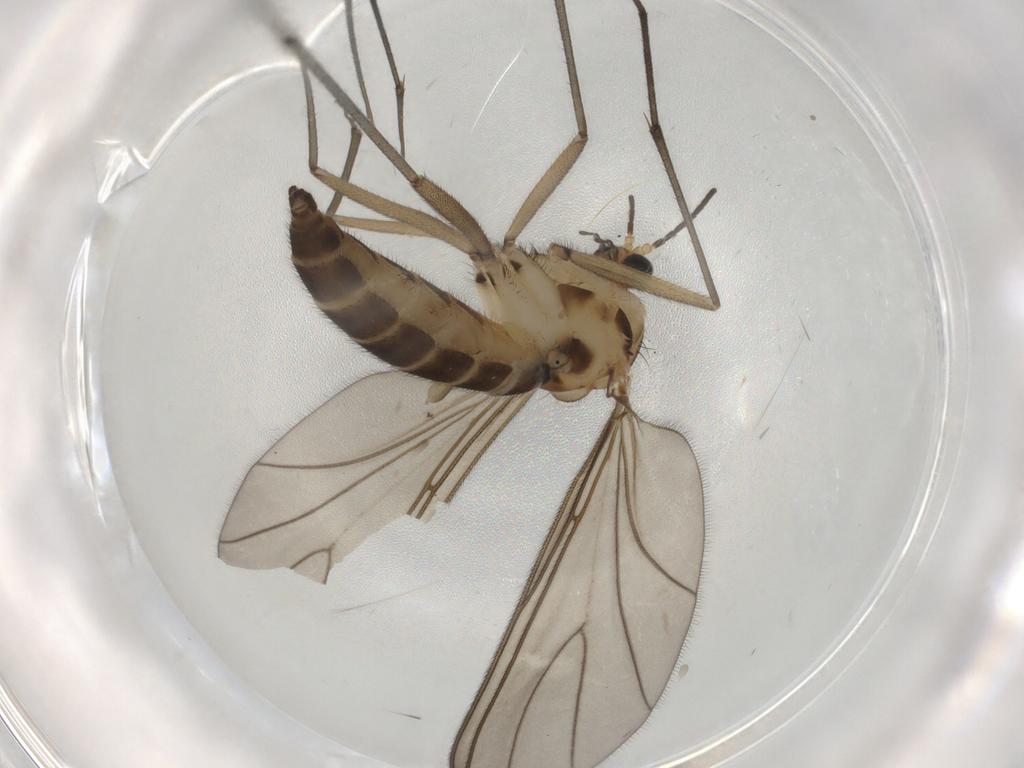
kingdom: Animalia
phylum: Arthropoda
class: Insecta
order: Diptera
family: Sciaridae
